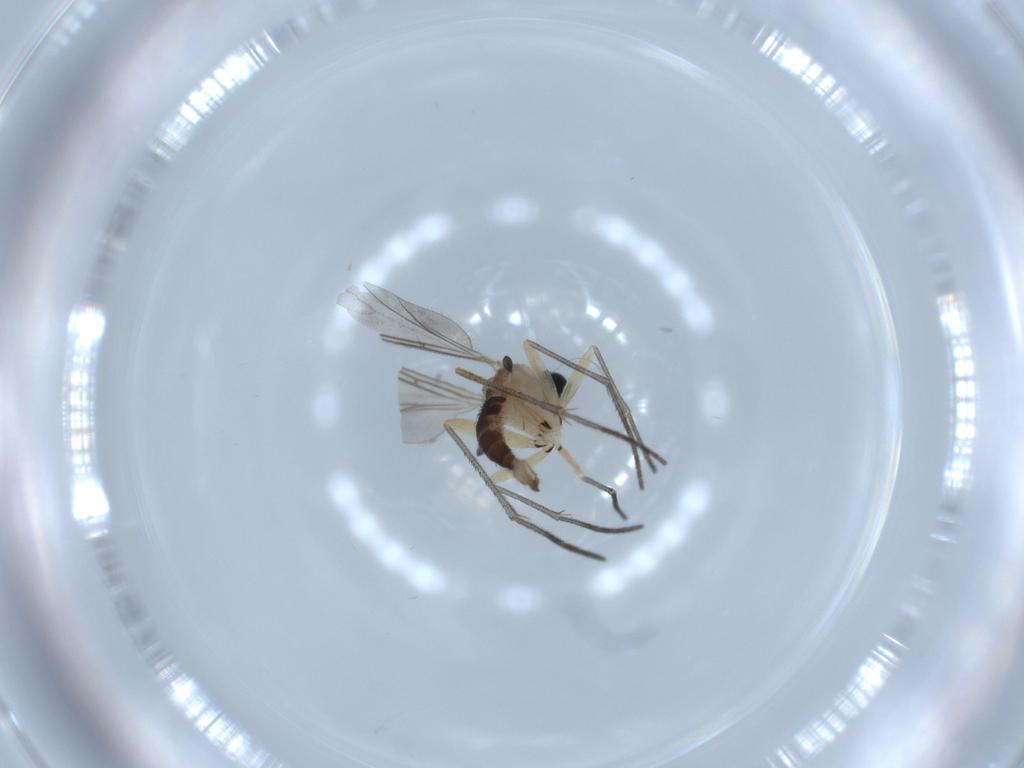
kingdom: Animalia
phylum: Arthropoda
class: Insecta
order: Diptera
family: Sciaridae
